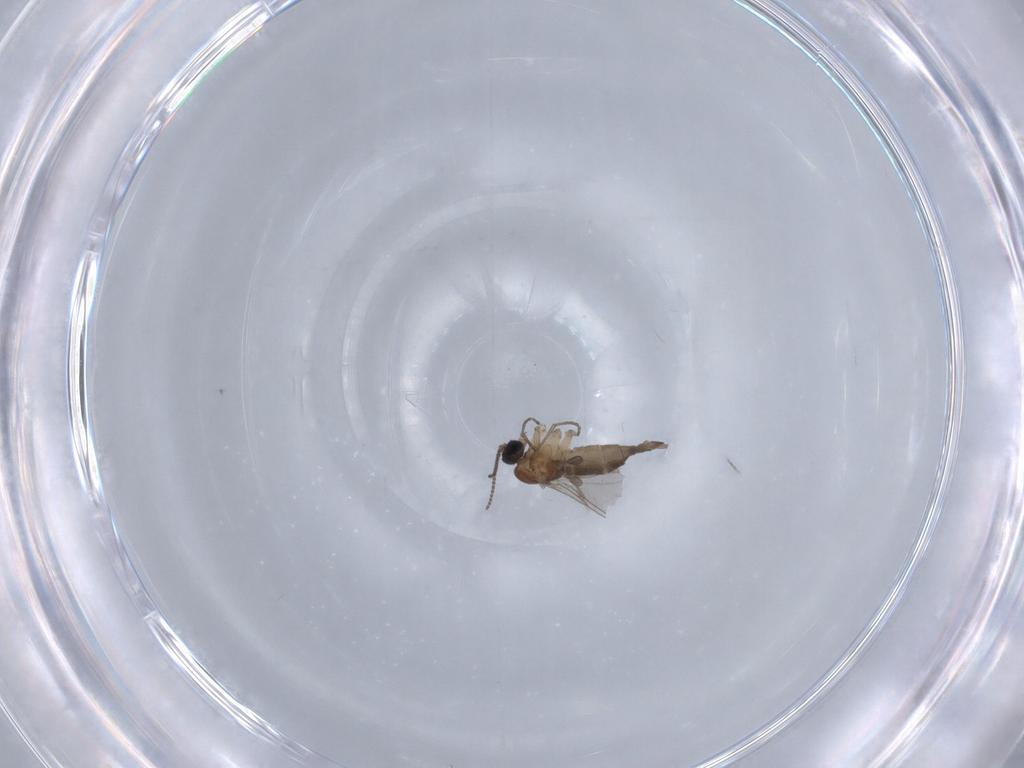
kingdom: Animalia
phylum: Arthropoda
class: Insecta
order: Diptera
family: Sciaridae
